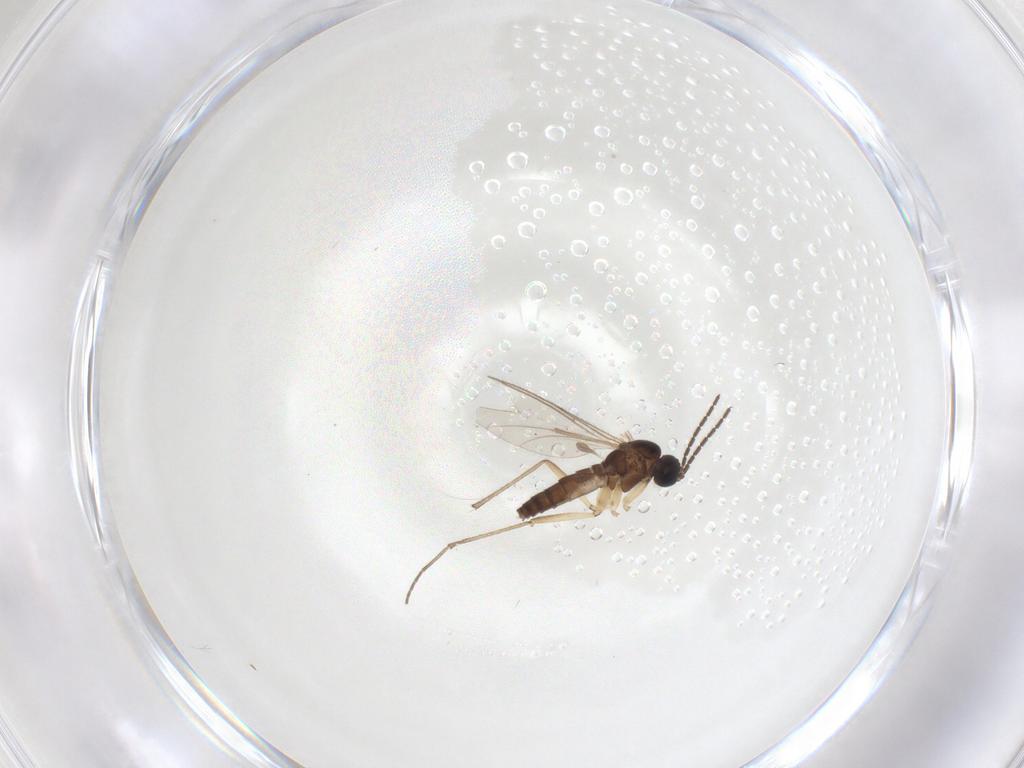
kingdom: Animalia
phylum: Arthropoda
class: Insecta
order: Diptera
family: Sciaridae
